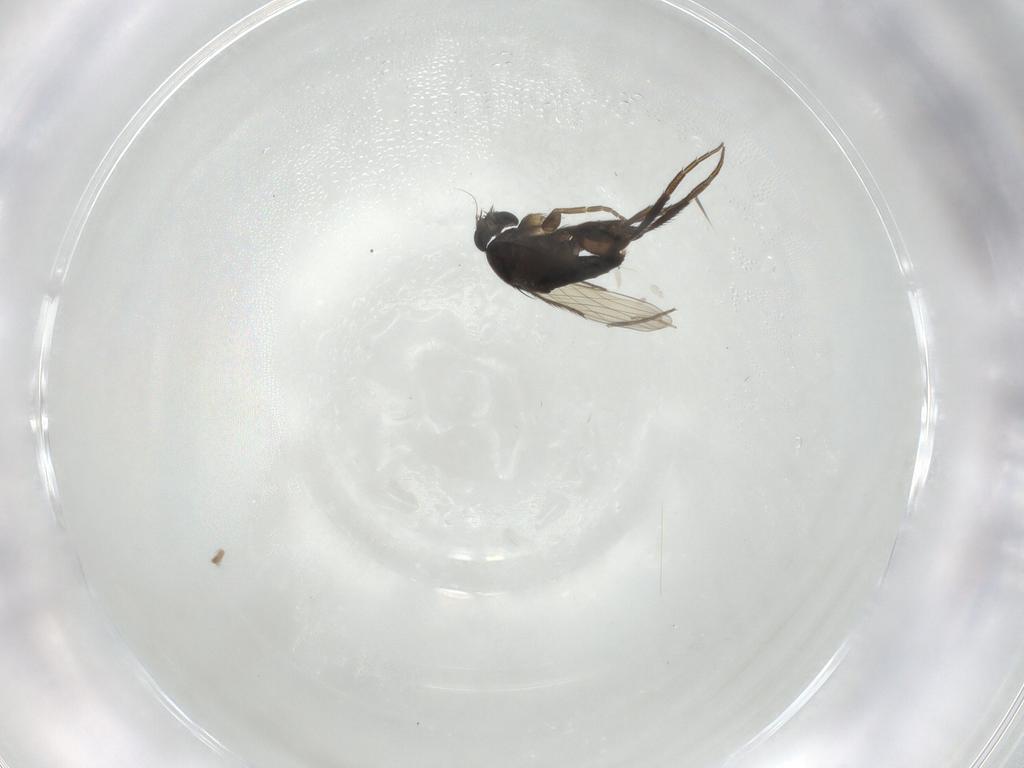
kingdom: Animalia
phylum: Arthropoda
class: Insecta
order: Diptera
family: Phoridae
